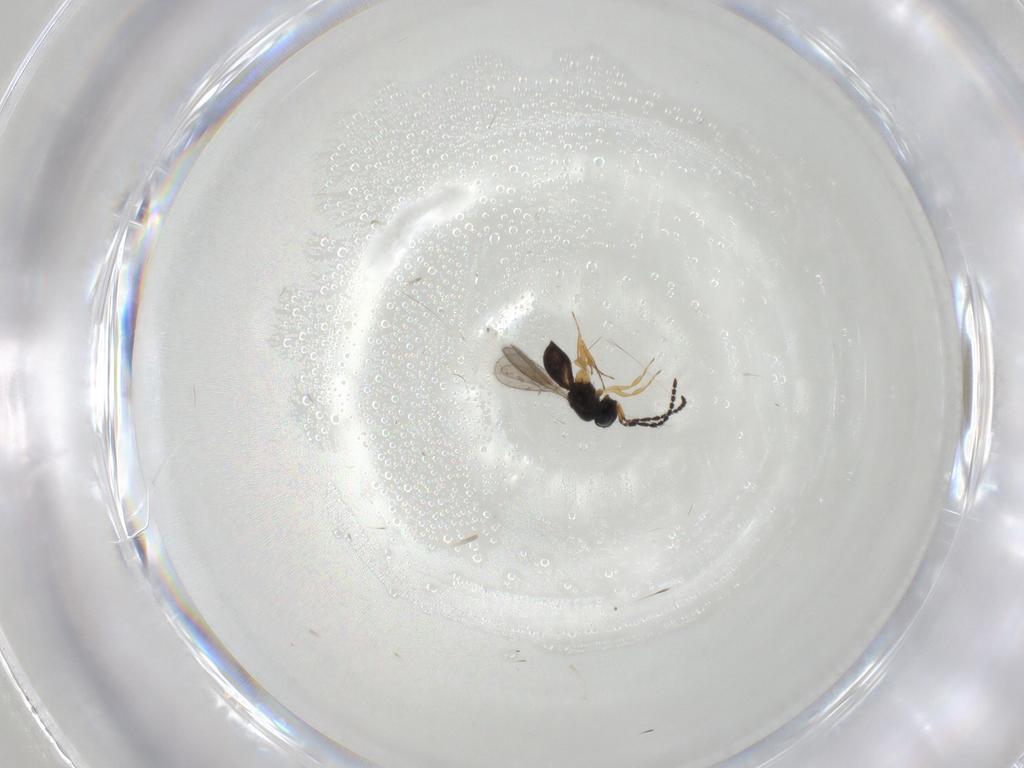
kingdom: Animalia
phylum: Arthropoda
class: Insecta
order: Hymenoptera
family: Scelionidae
